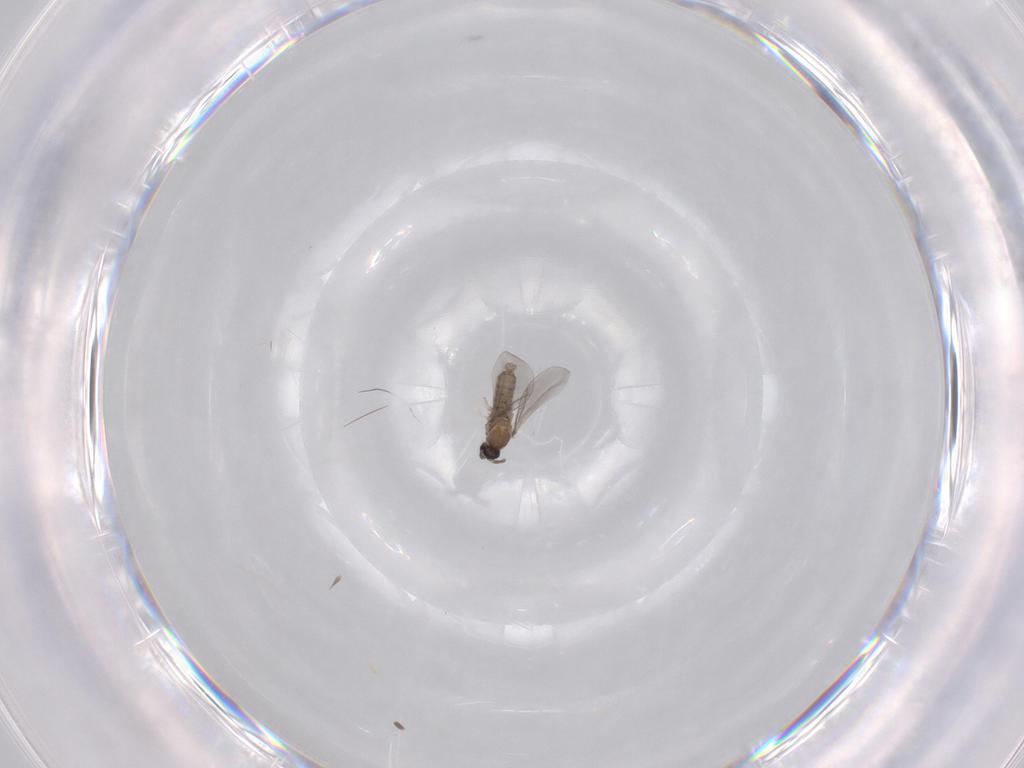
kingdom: Animalia
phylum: Arthropoda
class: Insecta
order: Diptera
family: Cecidomyiidae
